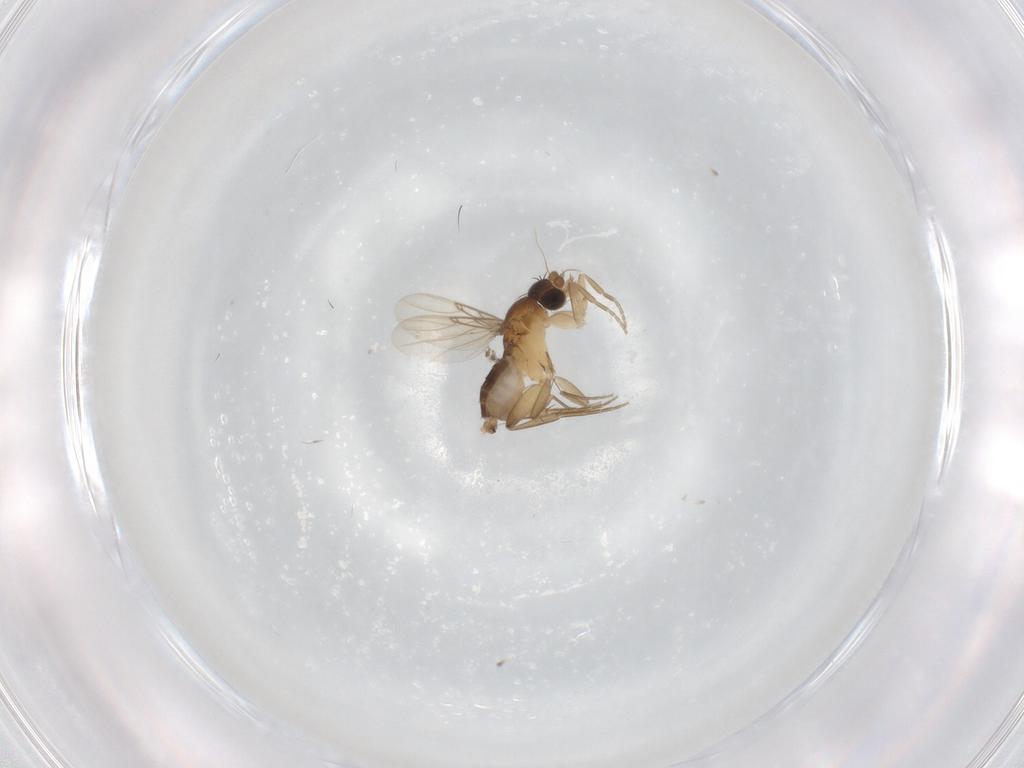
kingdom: Animalia
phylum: Arthropoda
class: Insecta
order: Diptera
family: Phoridae
